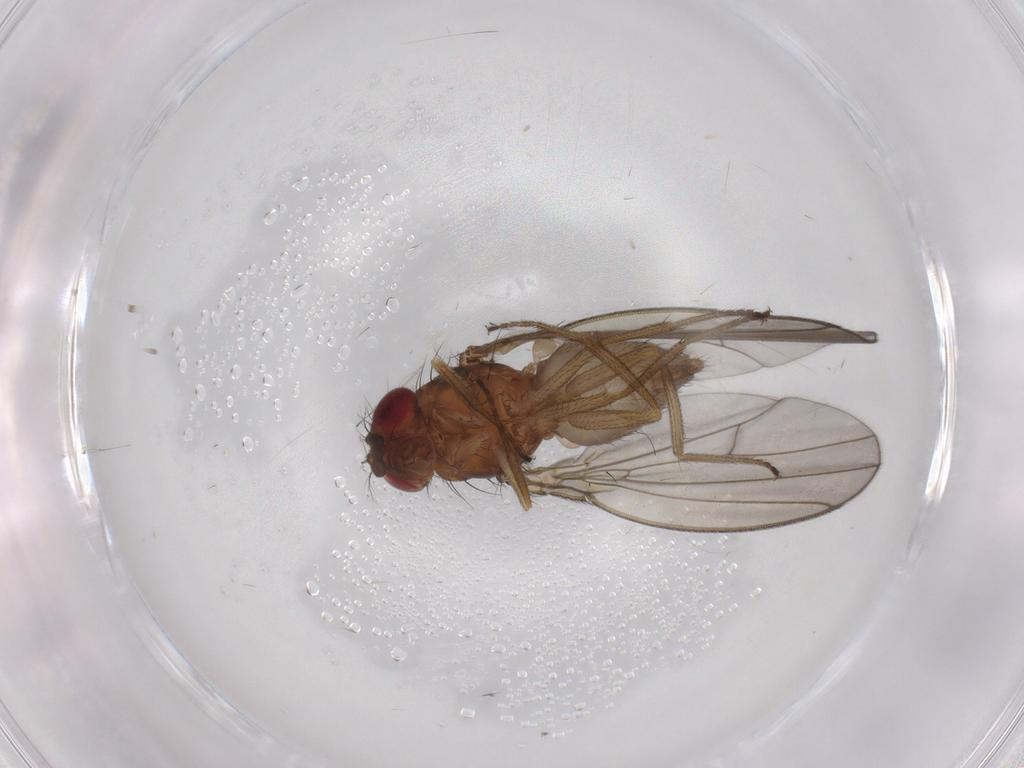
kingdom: Animalia
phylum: Arthropoda
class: Insecta
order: Diptera
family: Drosophilidae
